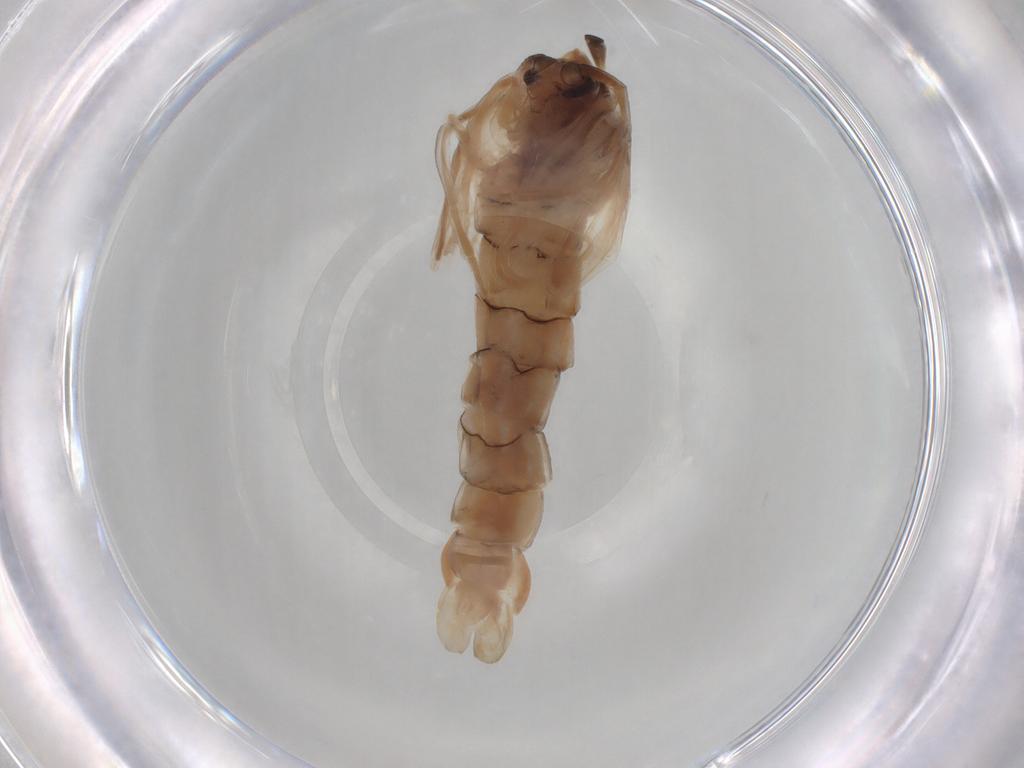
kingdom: Animalia
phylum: Arthropoda
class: Insecta
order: Diptera
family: Chironomidae
